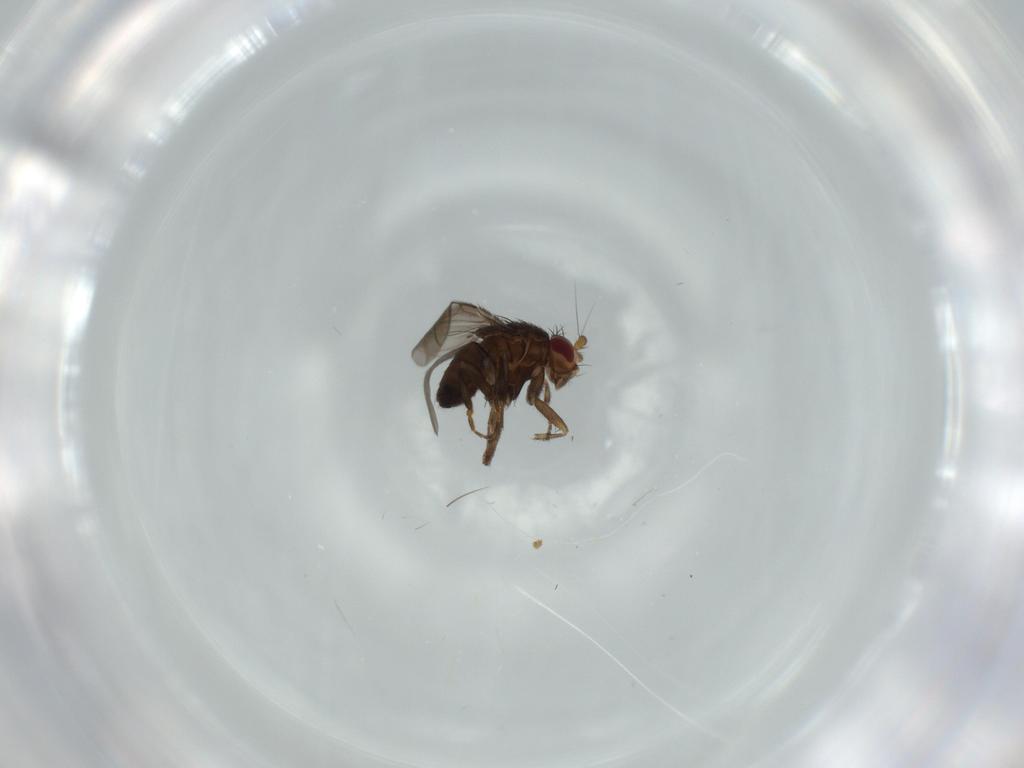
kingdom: Animalia
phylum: Arthropoda
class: Insecta
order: Diptera
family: Sphaeroceridae
